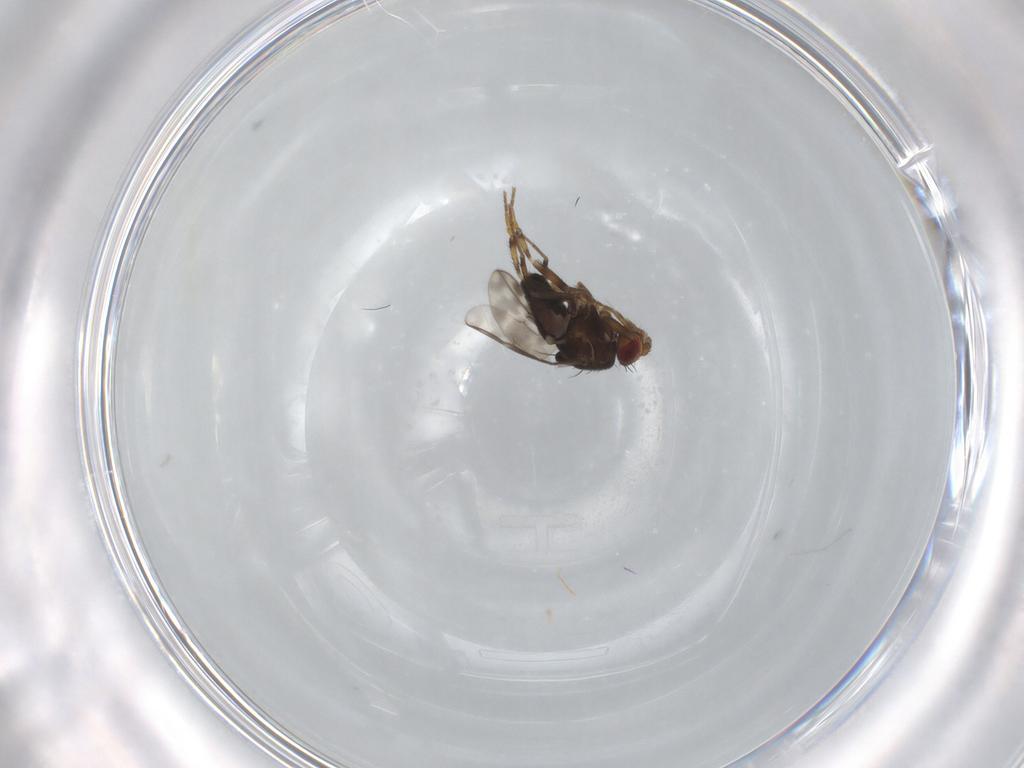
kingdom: Animalia
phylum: Arthropoda
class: Insecta
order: Diptera
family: Sphaeroceridae
